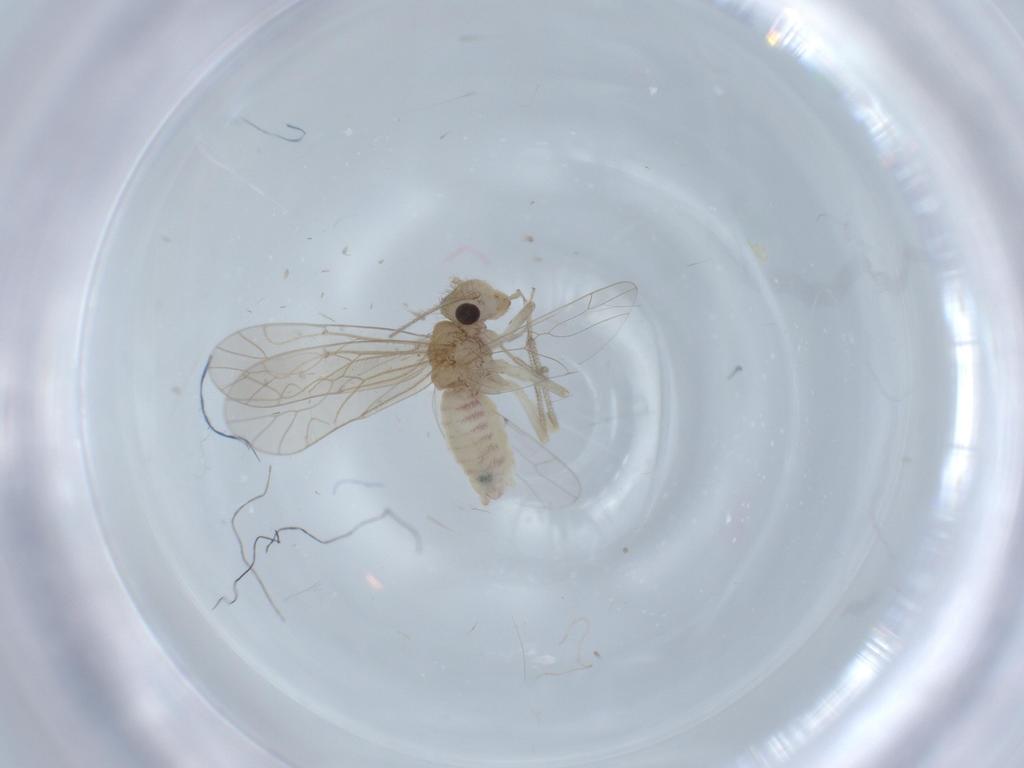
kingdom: Animalia
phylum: Arthropoda
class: Insecta
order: Psocodea
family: Caeciliusidae
